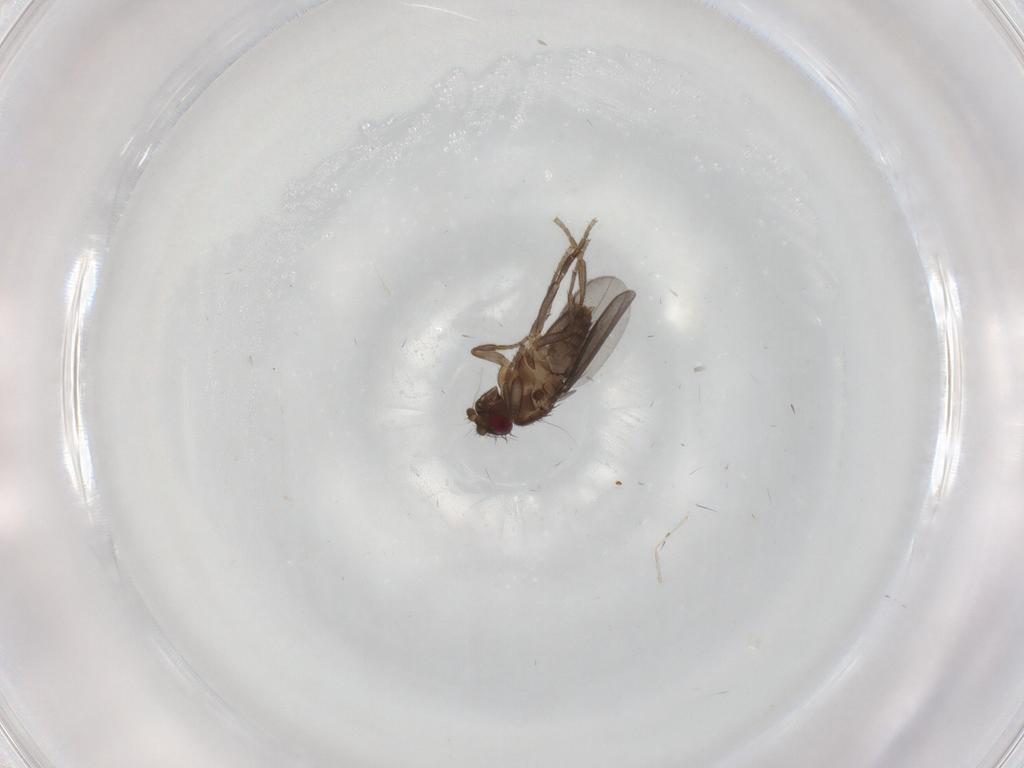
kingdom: Animalia
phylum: Arthropoda
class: Insecta
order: Diptera
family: Sphaeroceridae
